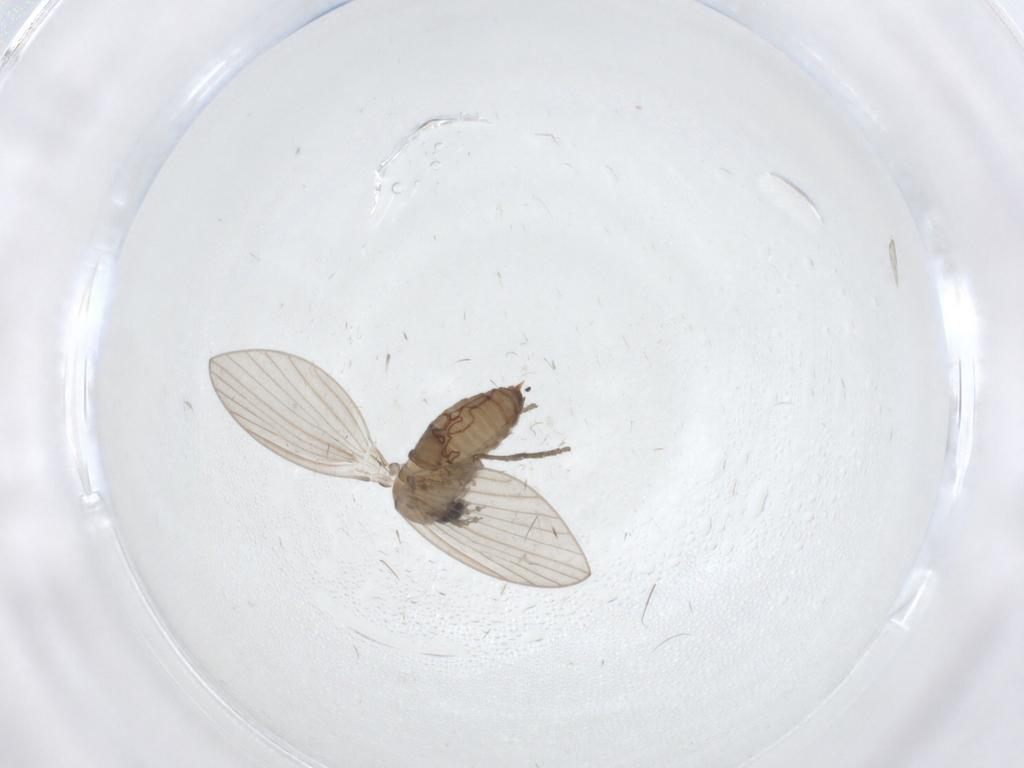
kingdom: Animalia
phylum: Arthropoda
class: Insecta
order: Diptera
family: Psychodidae
